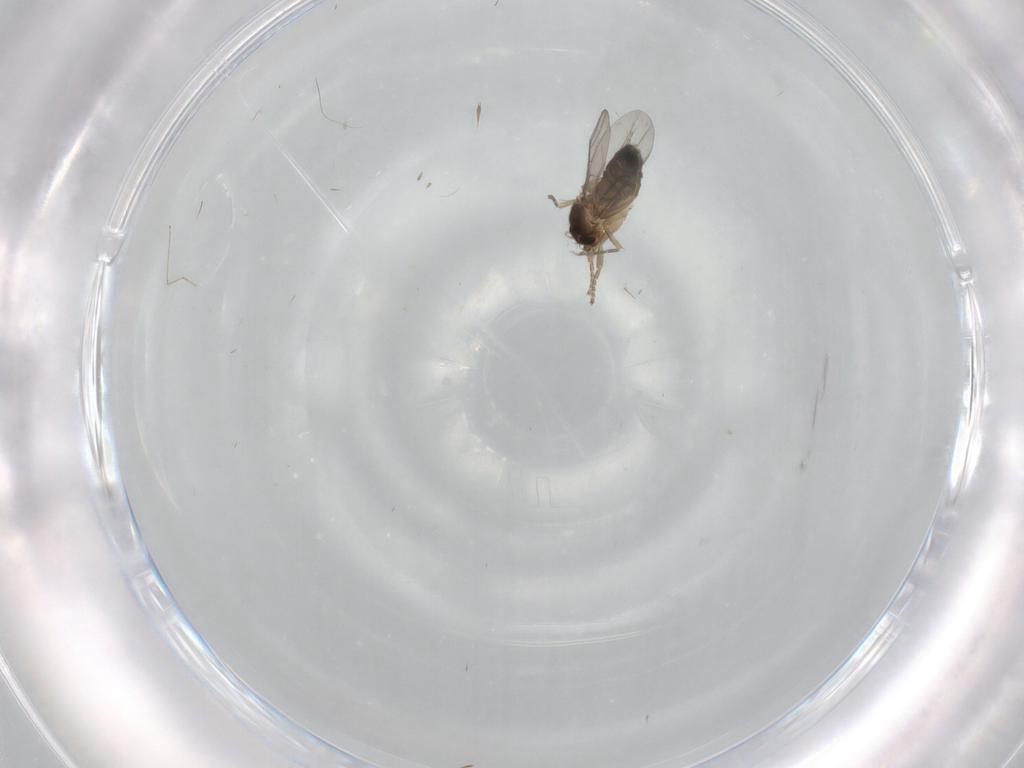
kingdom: Animalia
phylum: Arthropoda
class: Insecta
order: Diptera
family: Phoridae
